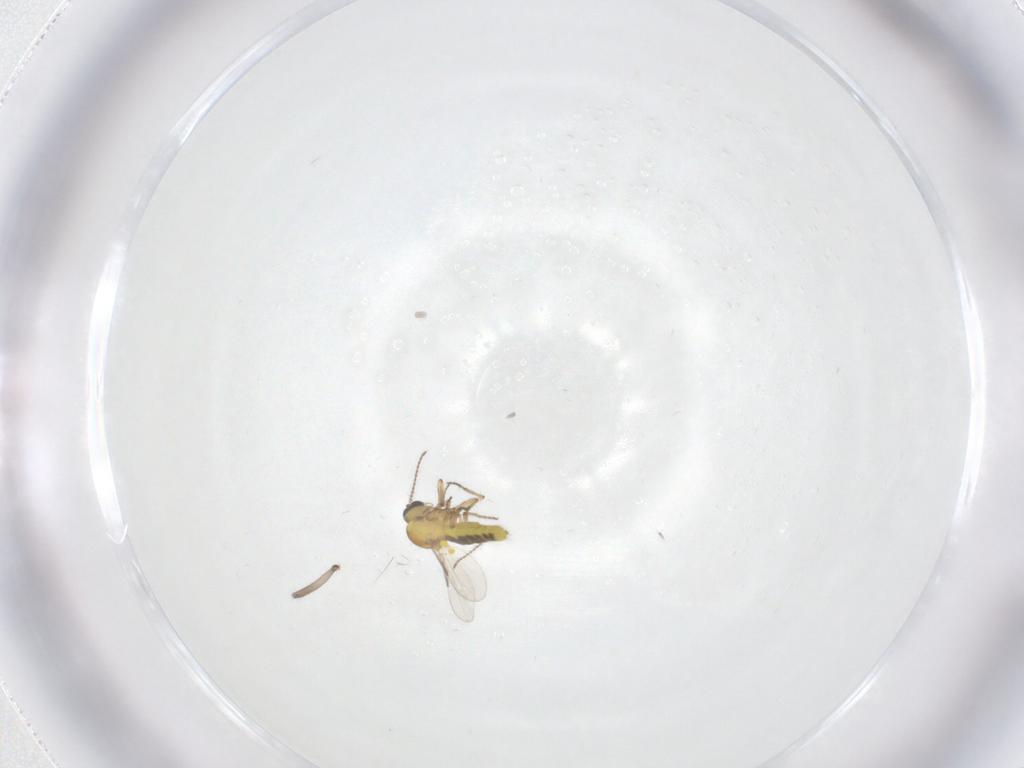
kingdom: Animalia
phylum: Arthropoda
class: Insecta
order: Diptera
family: Ceratopogonidae
